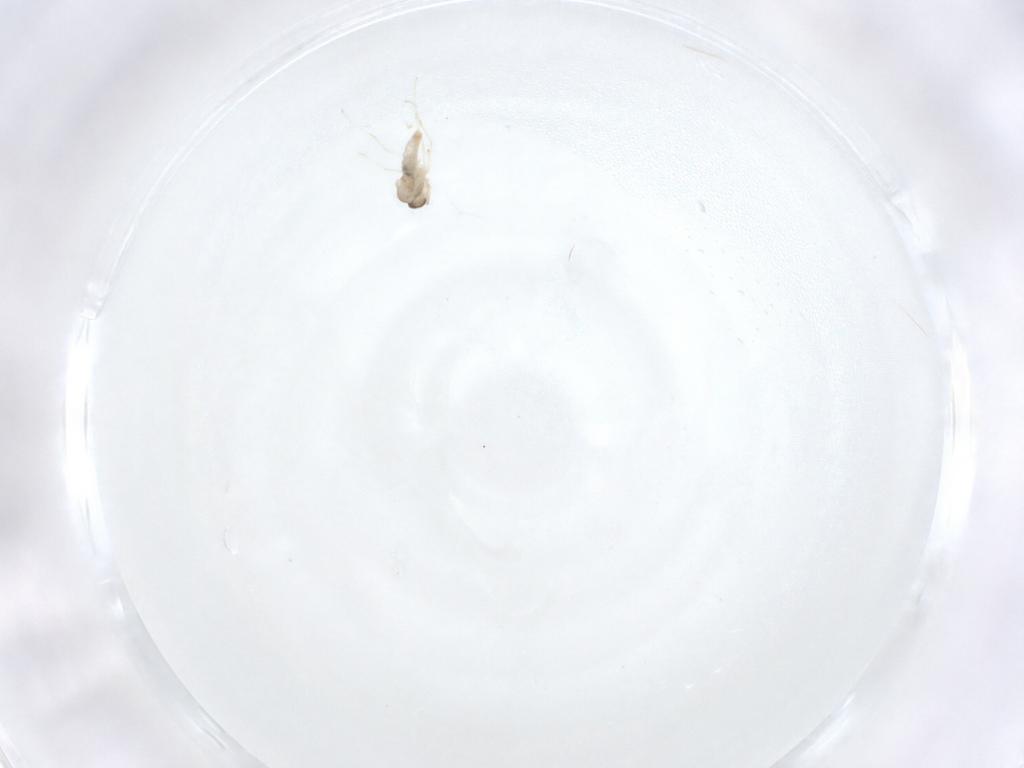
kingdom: Animalia
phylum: Arthropoda
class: Insecta
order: Diptera
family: Cecidomyiidae
